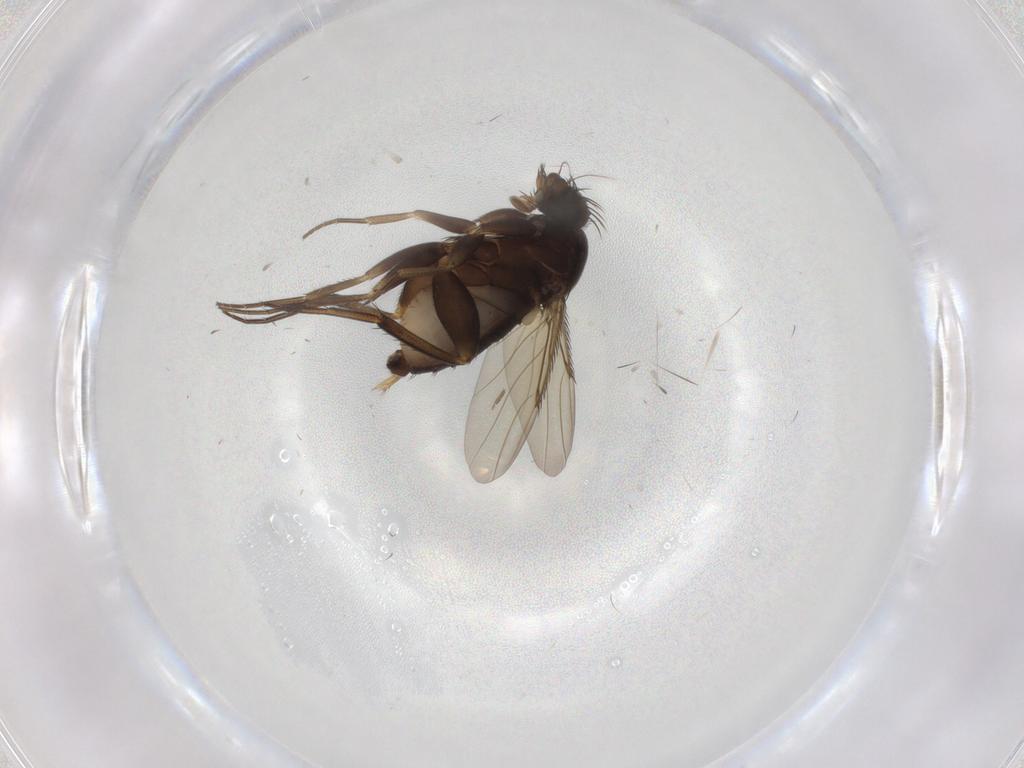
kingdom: Animalia
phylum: Arthropoda
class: Insecta
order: Diptera
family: Phoridae
